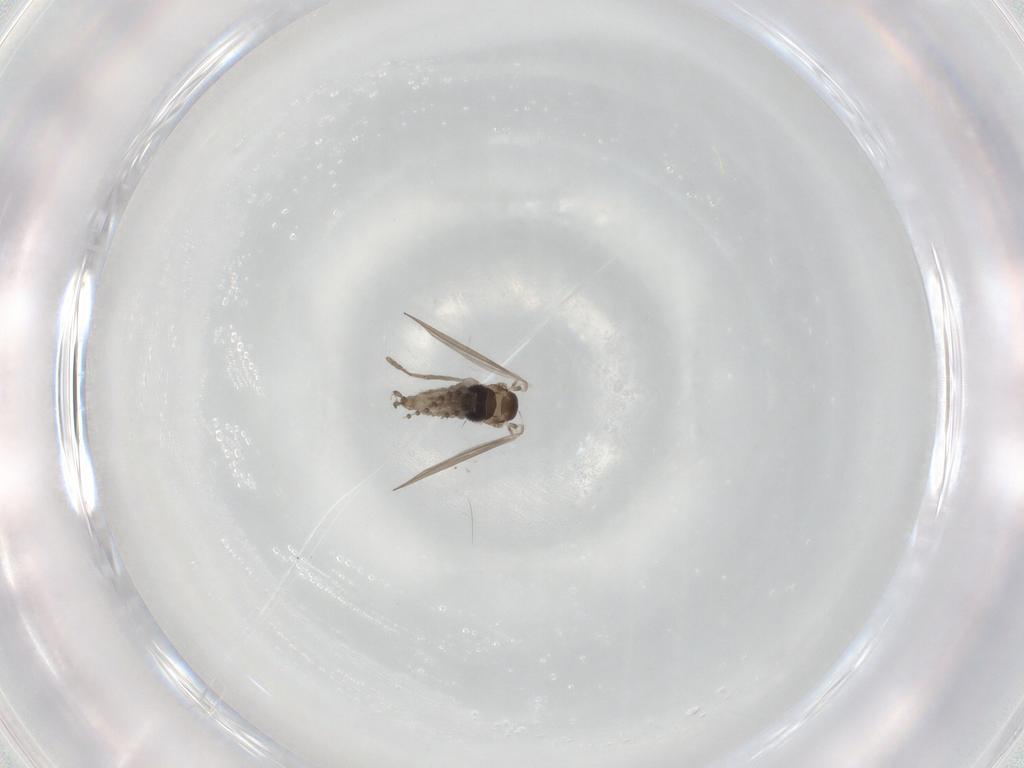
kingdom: Animalia
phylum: Arthropoda
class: Insecta
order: Diptera
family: Psychodidae
